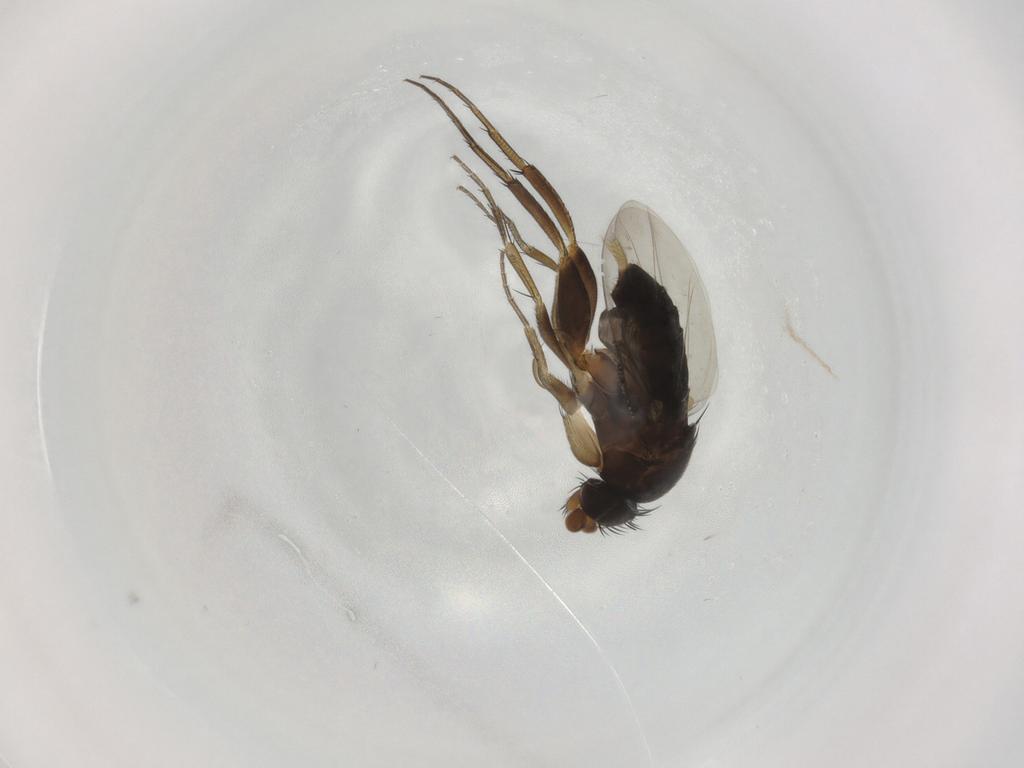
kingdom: Animalia
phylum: Arthropoda
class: Insecta
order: Diptera
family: Phoridae
